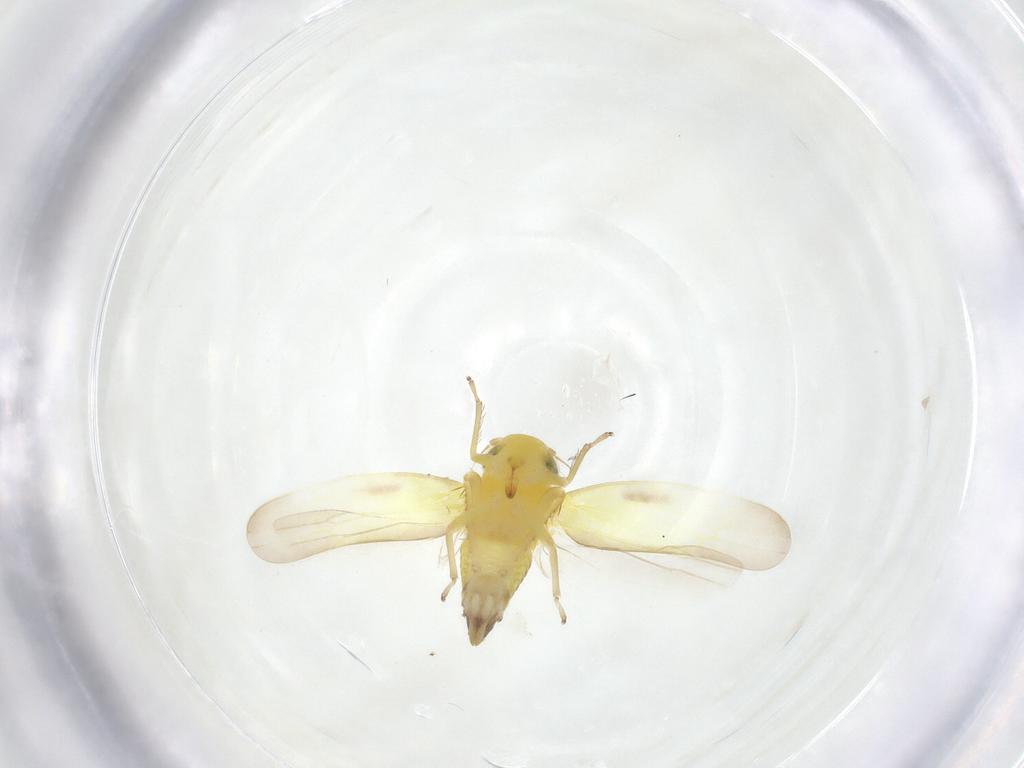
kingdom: Animalia
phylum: Arthropoda
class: Insecta
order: Hemiptera
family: Cicadellidae
